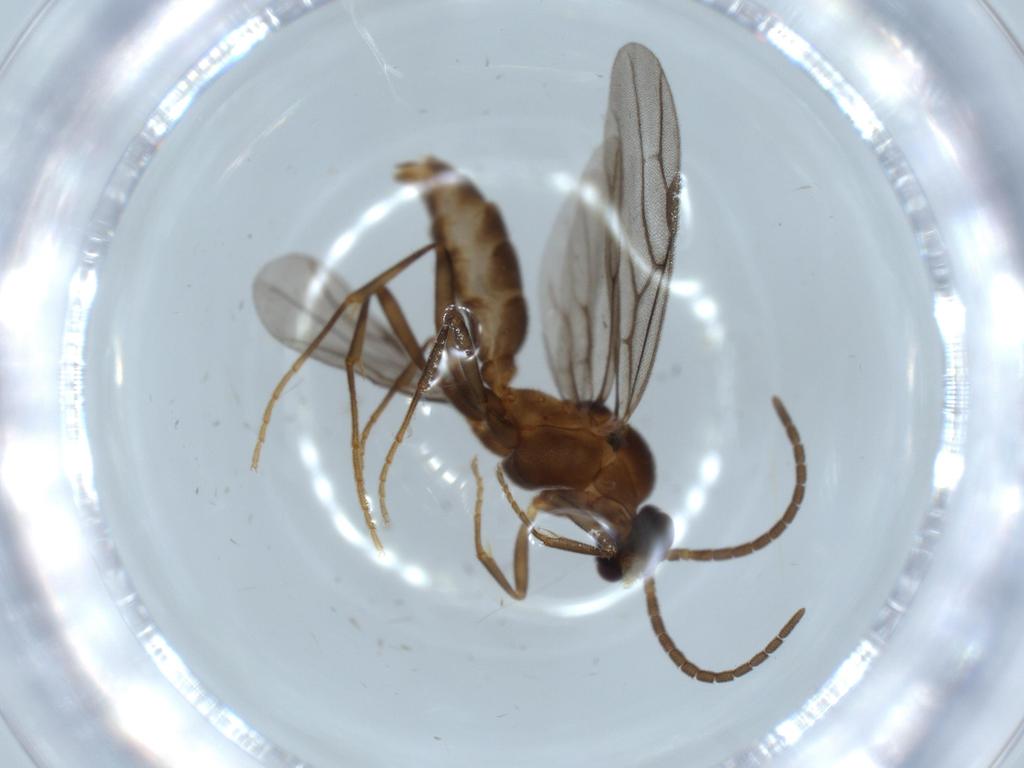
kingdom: Animalia
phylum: Arthropoda
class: Insecta
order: Hymenoptera
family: Formicidae
